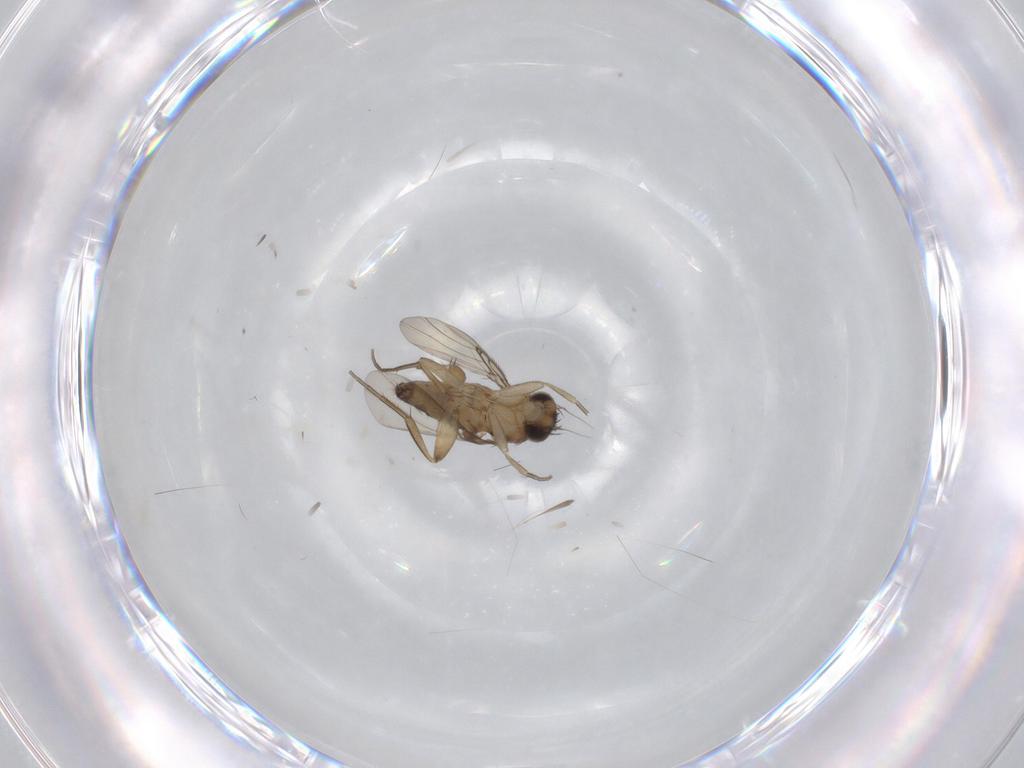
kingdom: Animalia
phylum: Arthropoda
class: Insecta
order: Diptera
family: Phoridae
